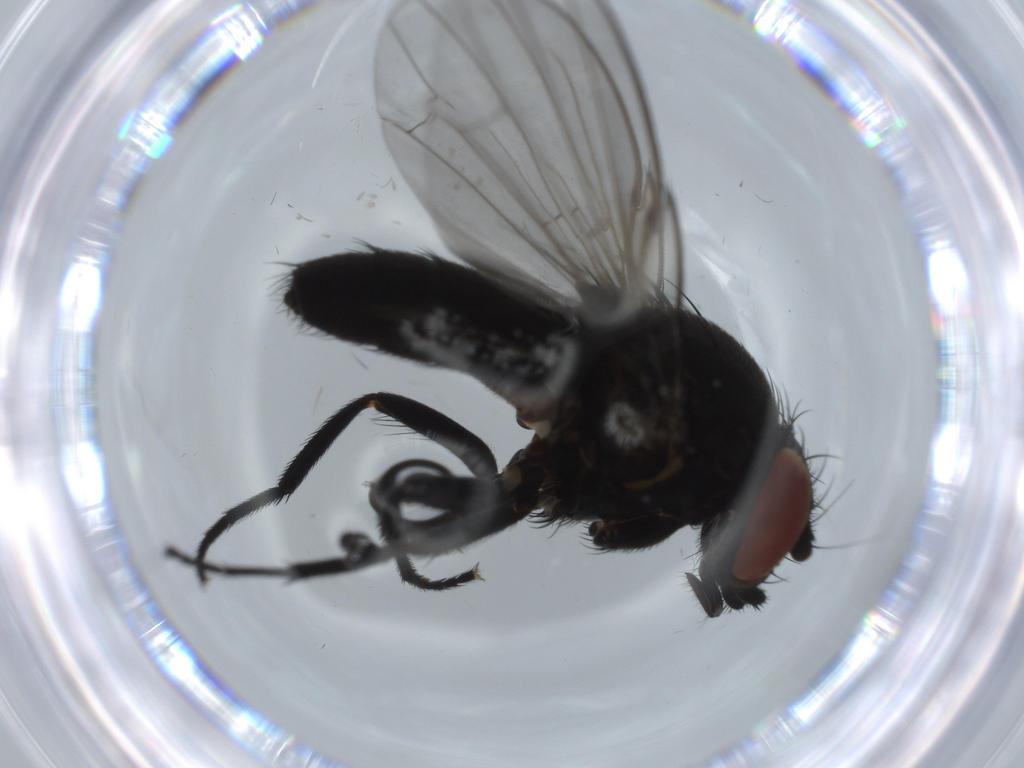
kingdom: Animalia
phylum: Arthropoda
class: Insecta
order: Diptera
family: Milichiidae
